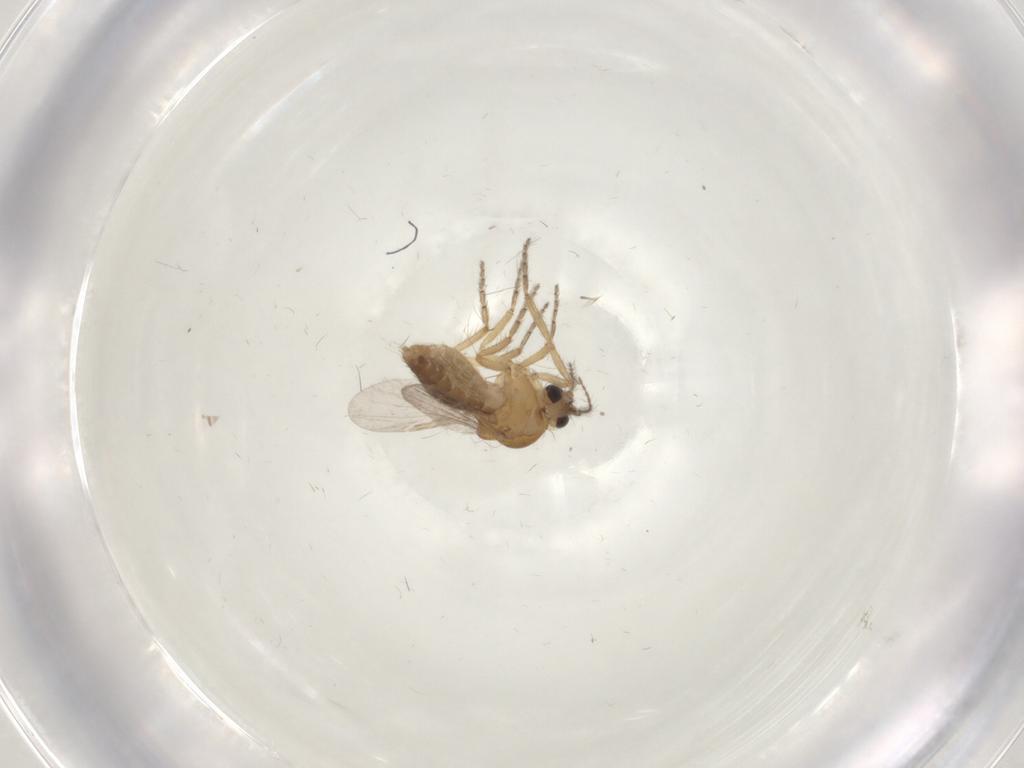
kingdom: Animalia
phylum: Arthropoda
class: Insecta
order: Diptera
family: Ceratopogonidae
